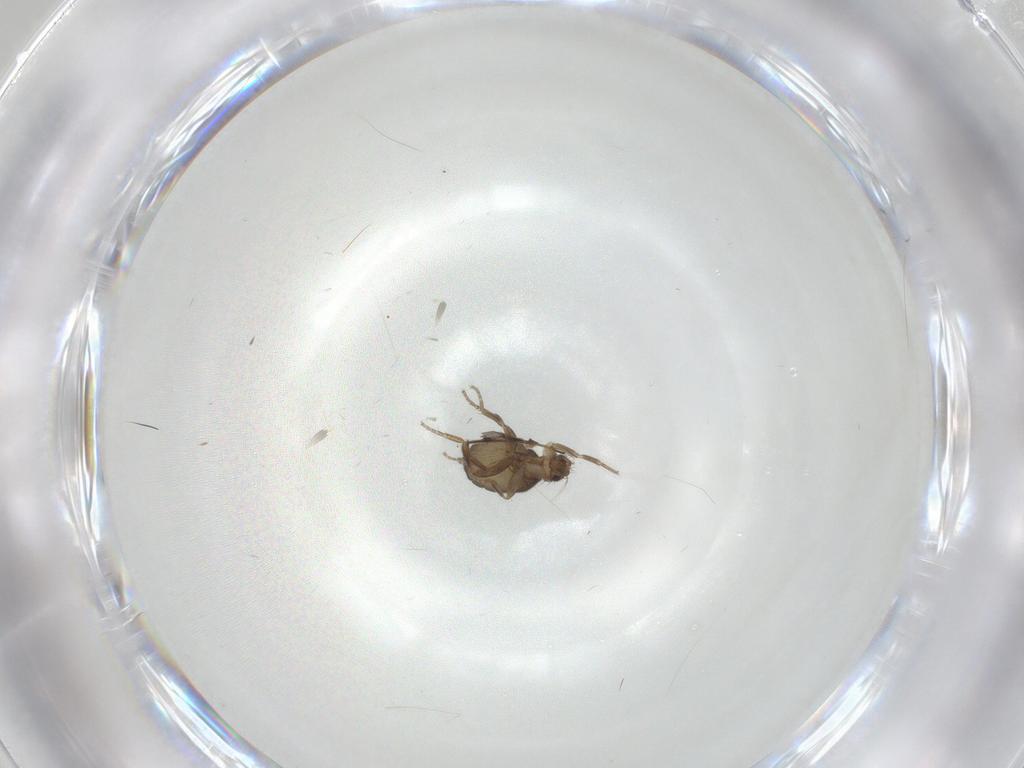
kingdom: Animalia
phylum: Arthropoda
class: Insecta
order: Diptera
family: Phoridae
